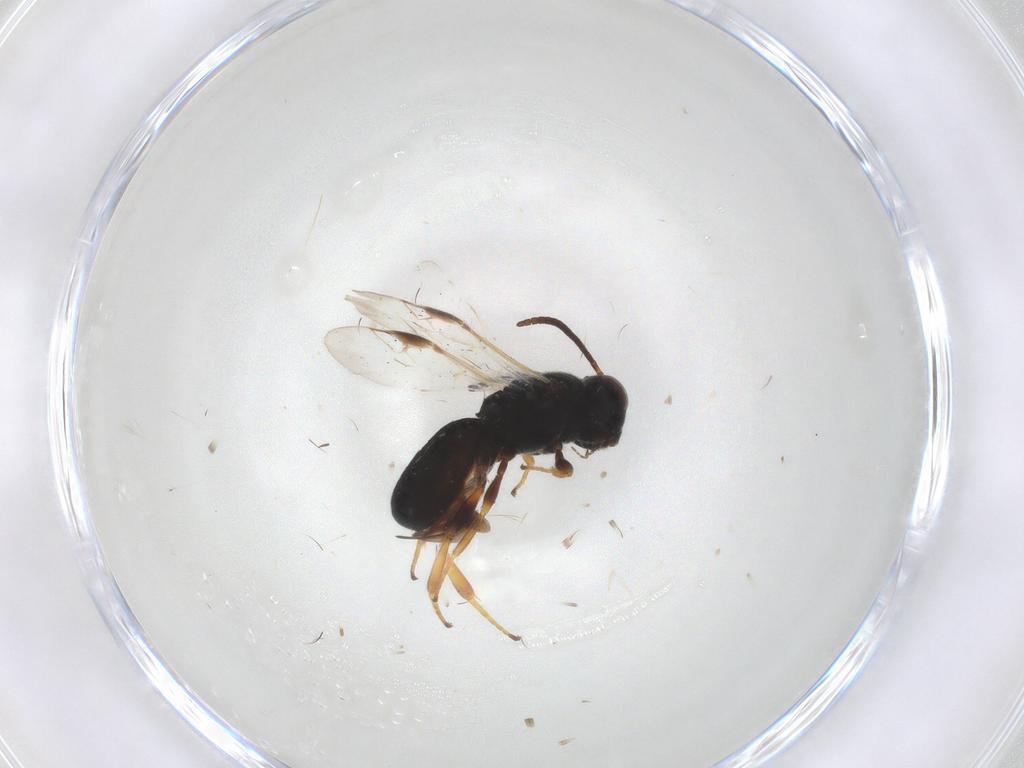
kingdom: Animalia
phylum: Arthropoda
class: Insecta
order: Hymenoptera
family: Braconidae
